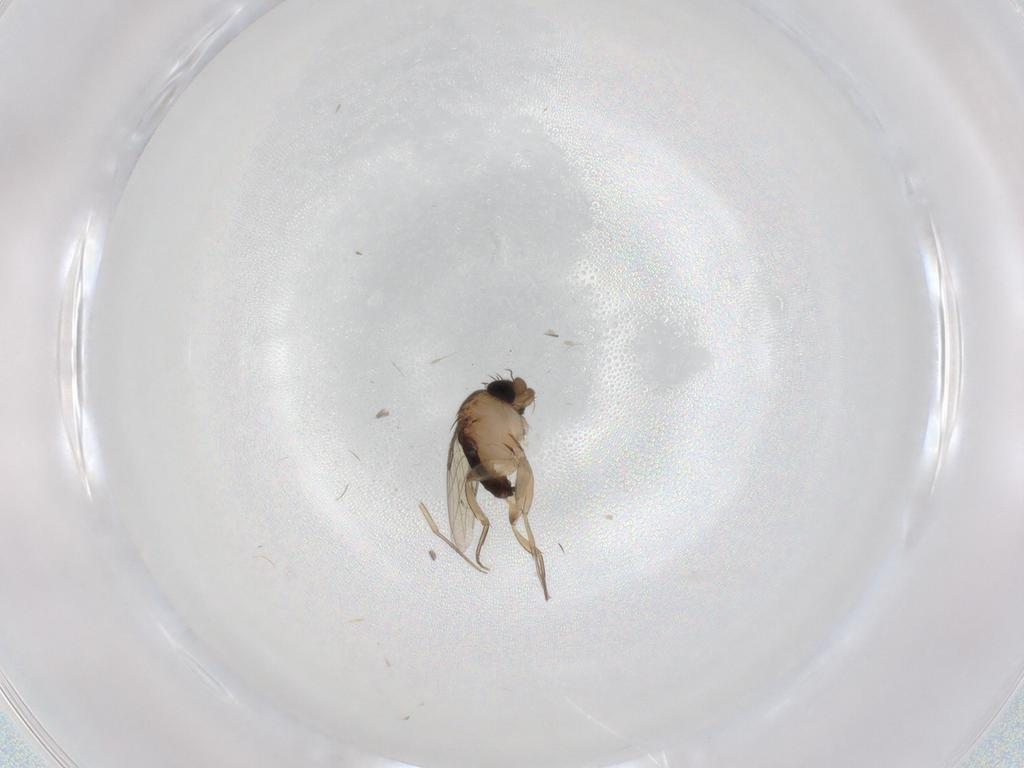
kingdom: Animalia
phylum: Arthropoda
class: Insecta
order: Diptera
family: Phoridae
